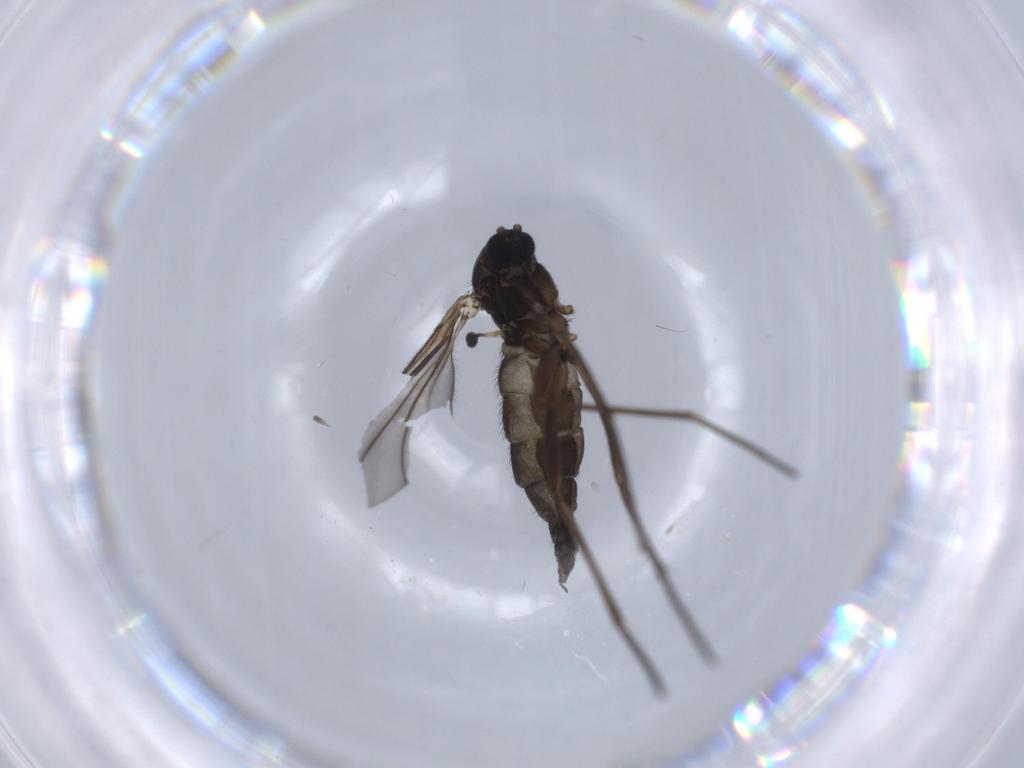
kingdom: Animalia
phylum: Arthropoda
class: Insecta
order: Diptera
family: Sciaridae
